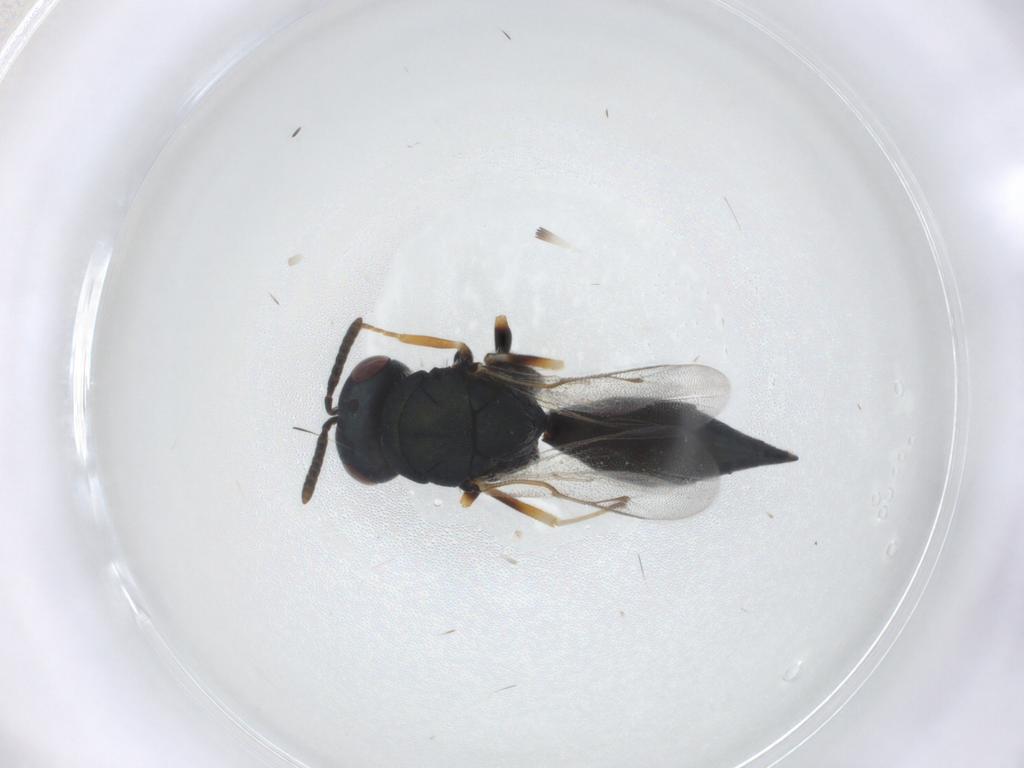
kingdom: Animalia
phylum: Arthropoda
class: Insecta
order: Hymenoptera
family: Pteromalidae
